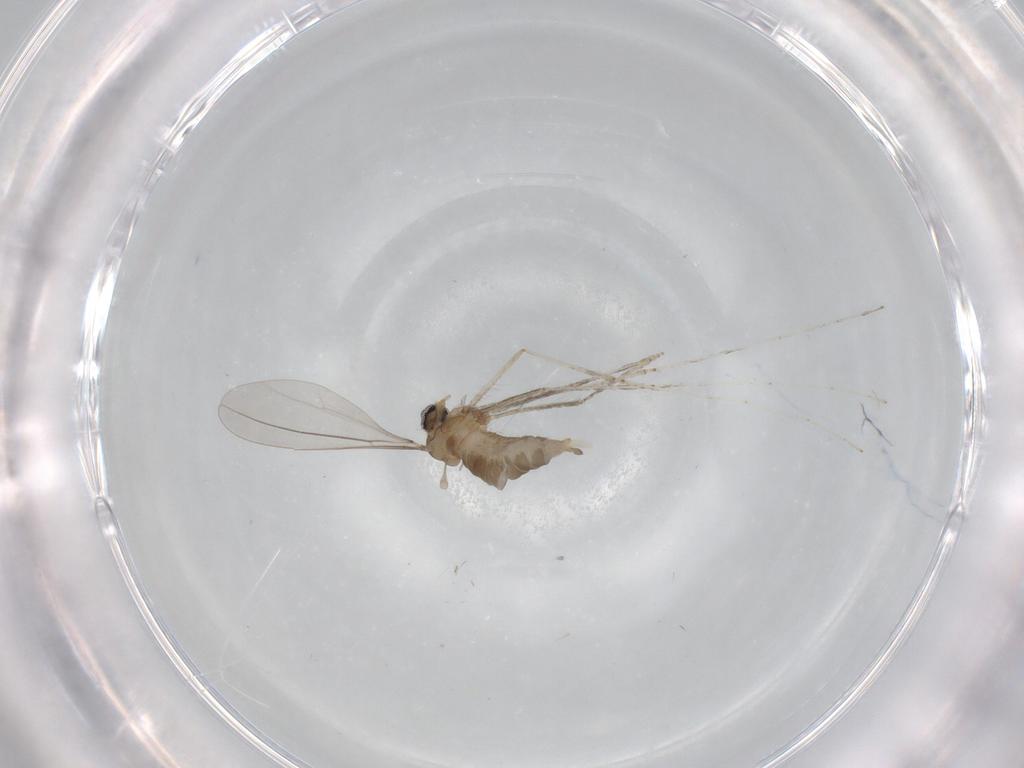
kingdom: Animalia
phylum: Arthropoda
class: Insecta
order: Diptera
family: Cecidomyiidae
